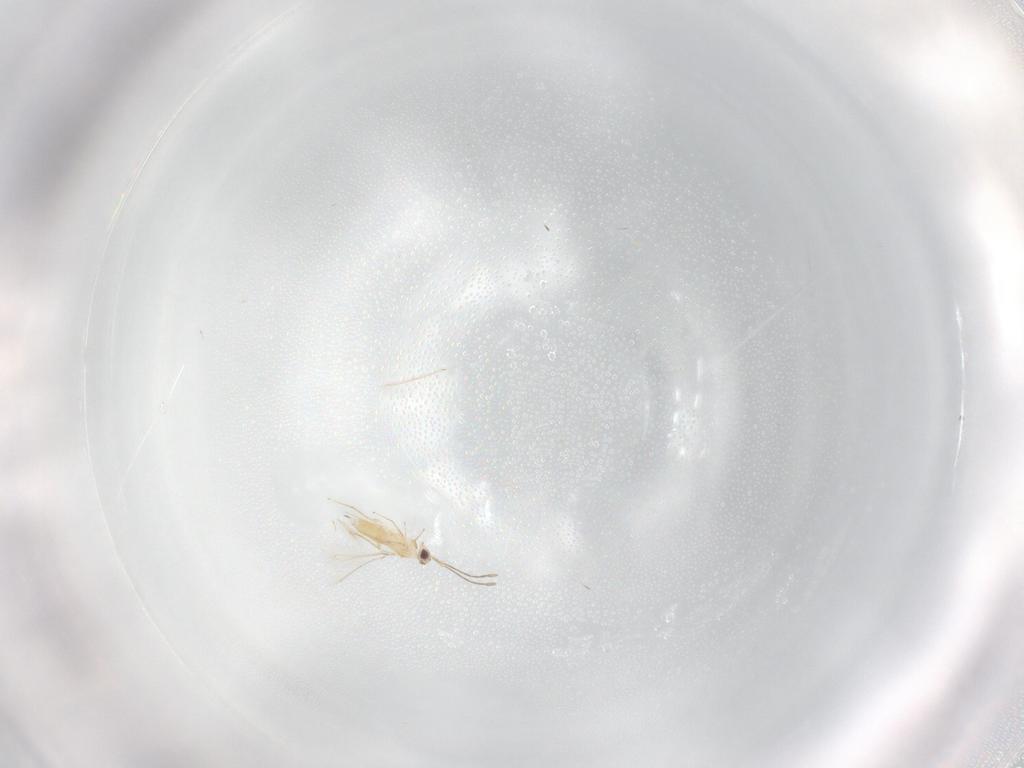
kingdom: Animalia
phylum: Arthropoda
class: Insecta
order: Hymenoptera
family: Mymaridae
